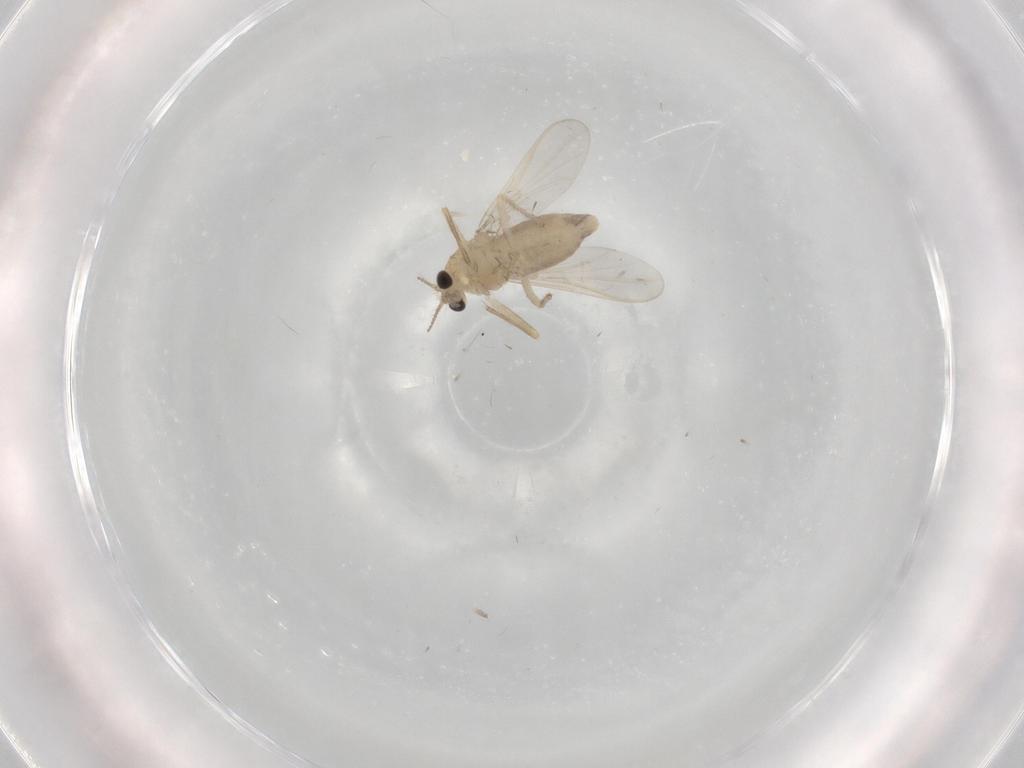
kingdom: Animalia
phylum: Arthropoda
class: Insecta
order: Diptera
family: Chironomidae
